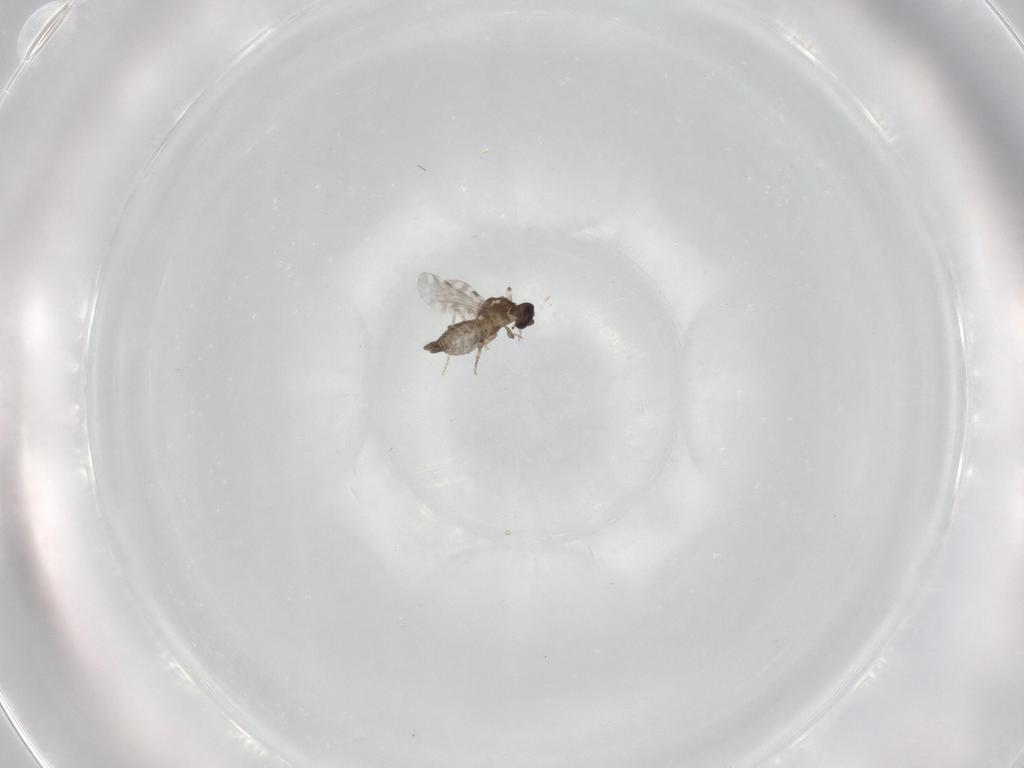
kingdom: Animalia
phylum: Arthropoda
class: Insecta
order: Diptera
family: Ceratopogonidae
